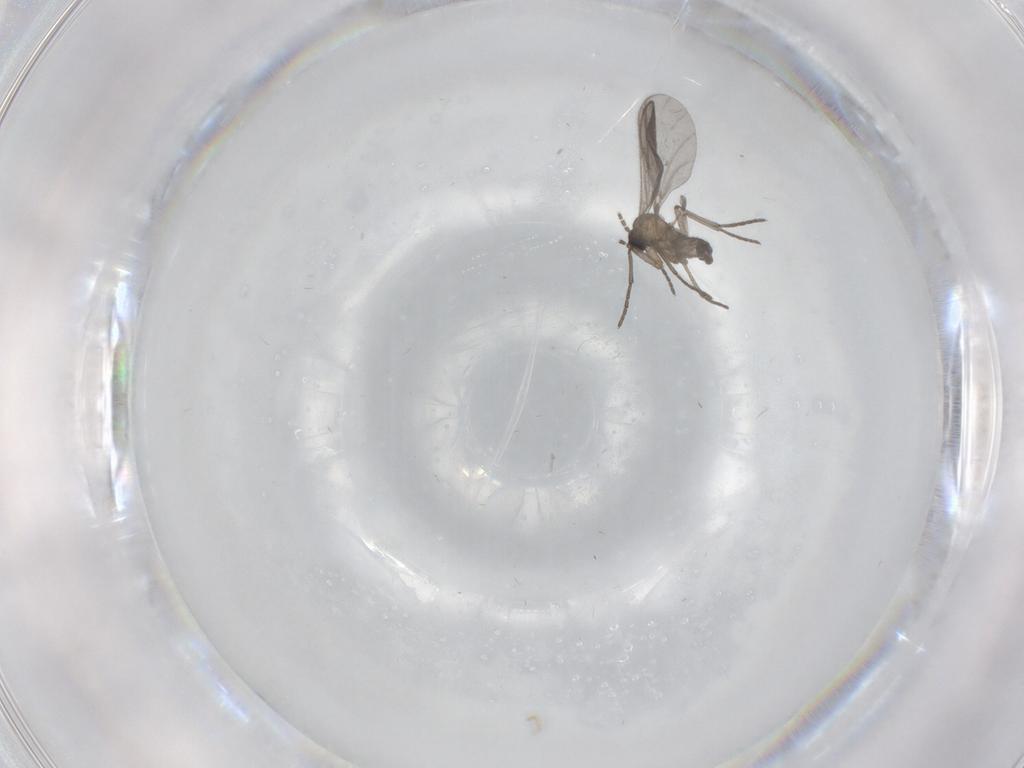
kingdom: Animalia
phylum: Arthropoda
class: Insecta
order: Diptera
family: Sciaridae
